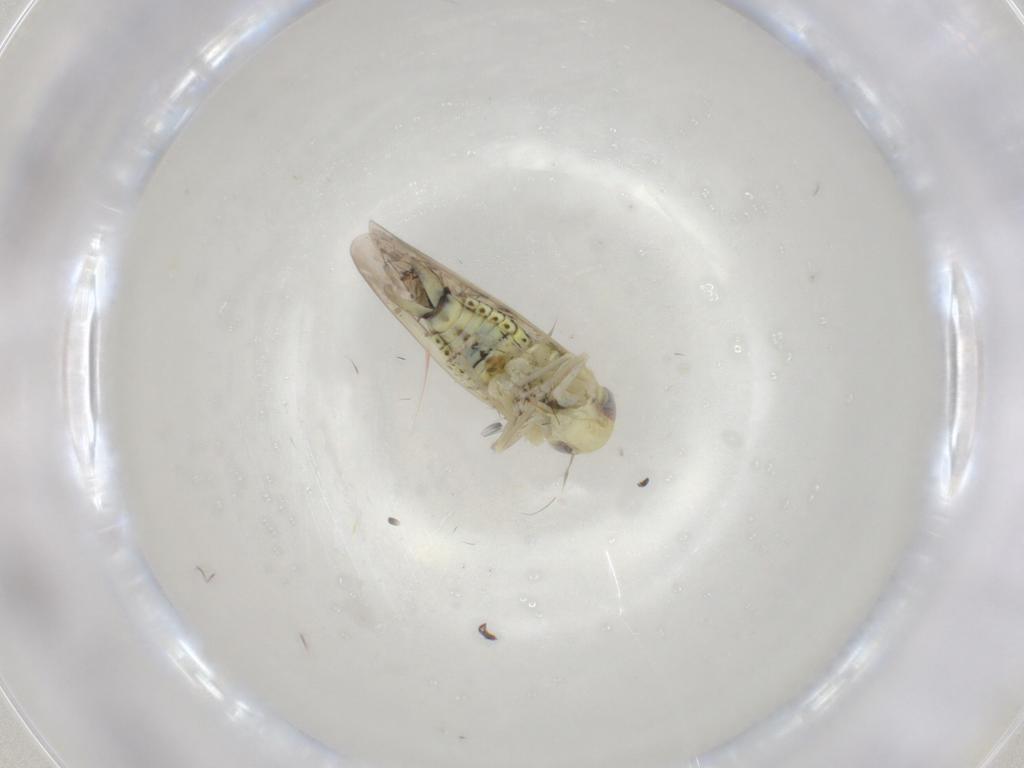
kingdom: Animalia
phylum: Arthropoda
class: Insecta
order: Hemiptera
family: Cicadellidae
